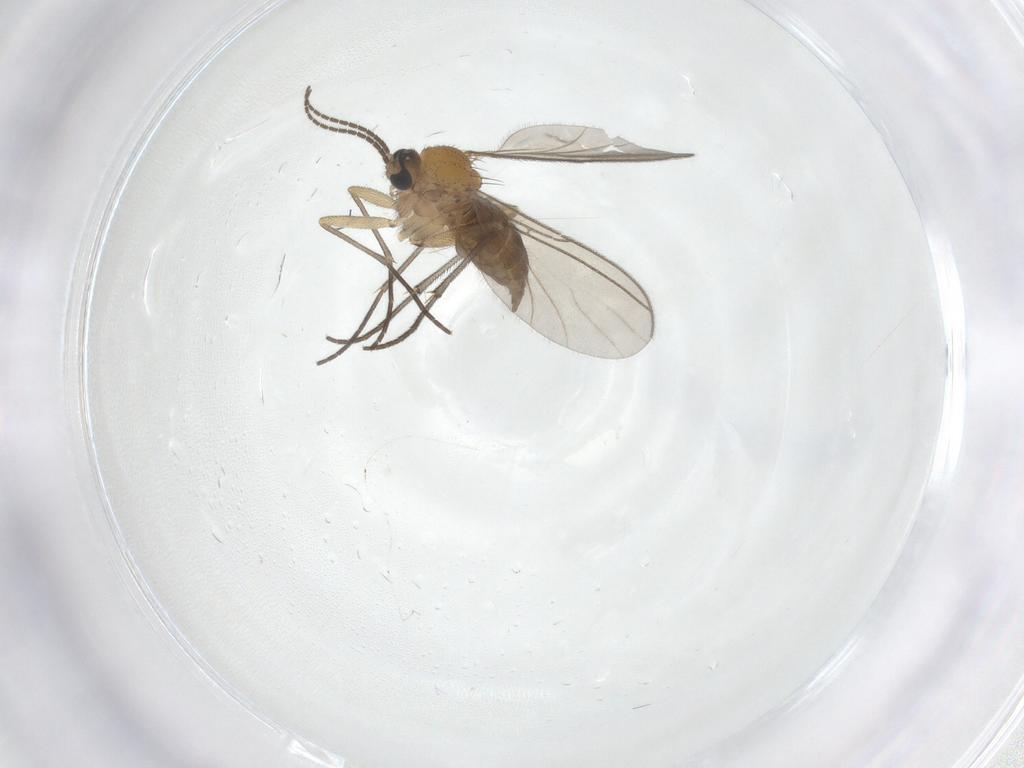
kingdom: Animalia
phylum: Arthropoda
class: Insecta
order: Diptera
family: Sciaridae
